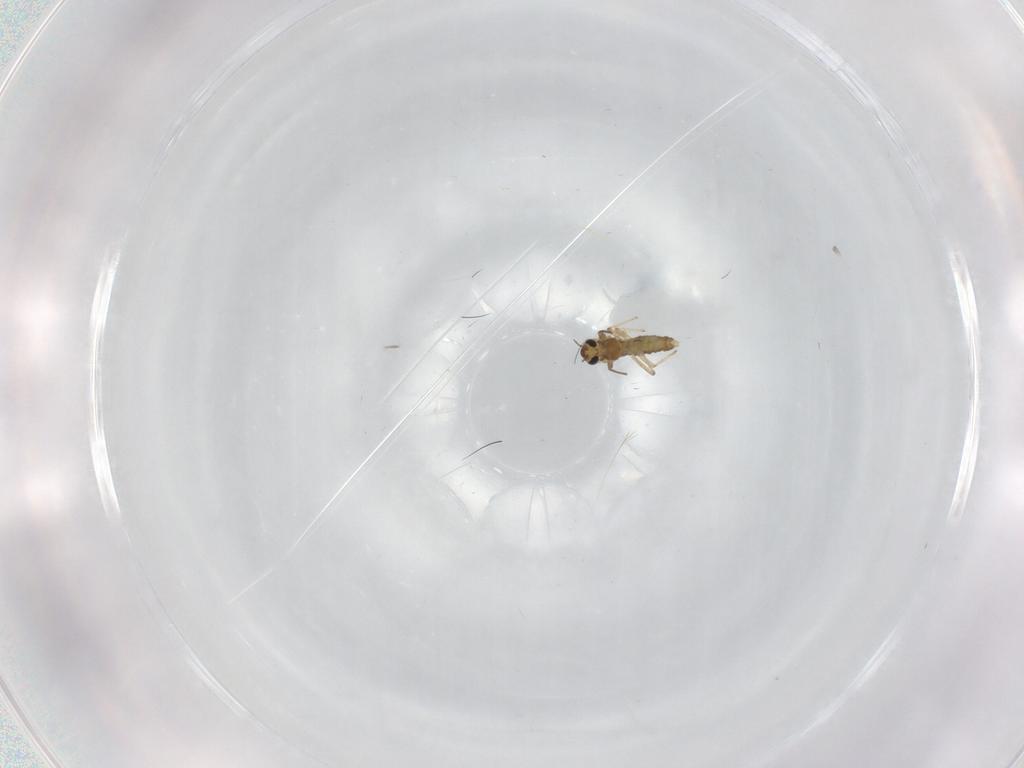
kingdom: Animalia
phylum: Arthropoda
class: Insecta
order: Diptera
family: Chironomidae
